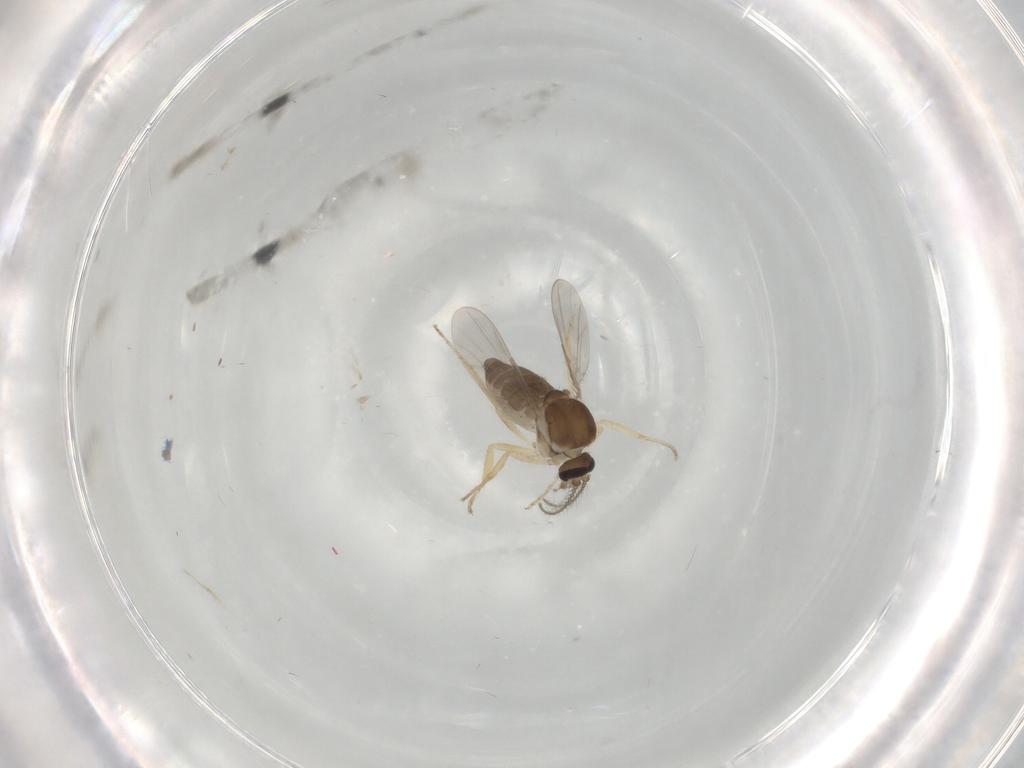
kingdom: Animalia
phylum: Arthropoda
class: Insecta
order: Diptera
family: Ceratopogonidae
